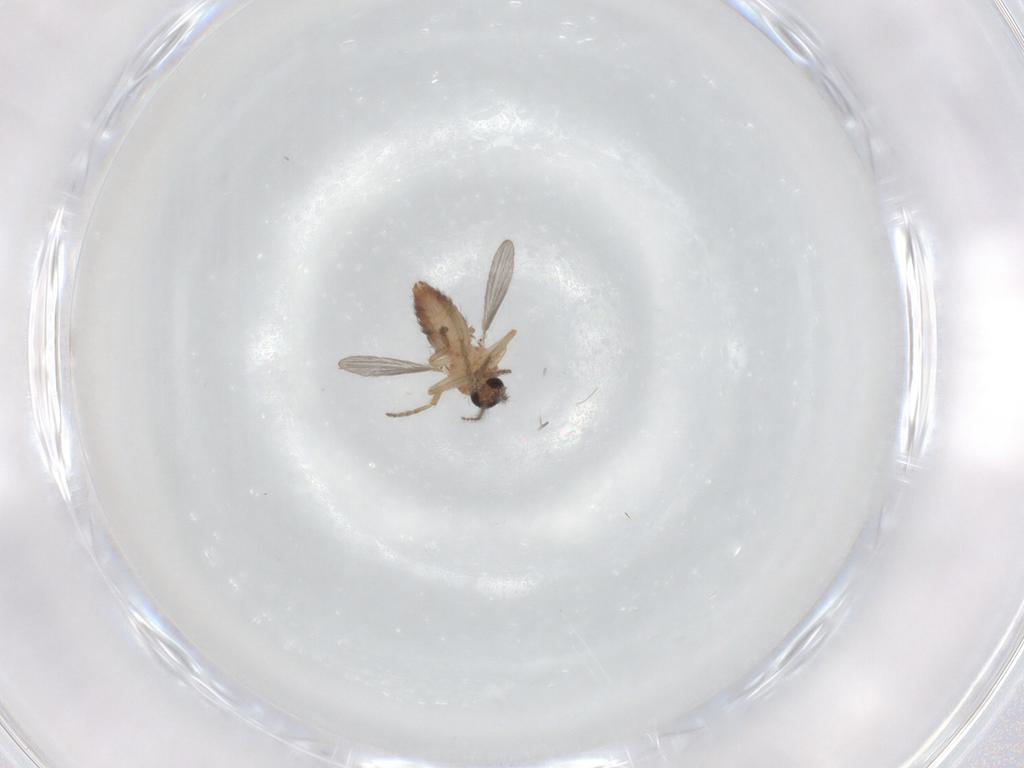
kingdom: Animalia
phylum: Arthropoda
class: Insecta
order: Diptera
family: Ceratopogonidae
